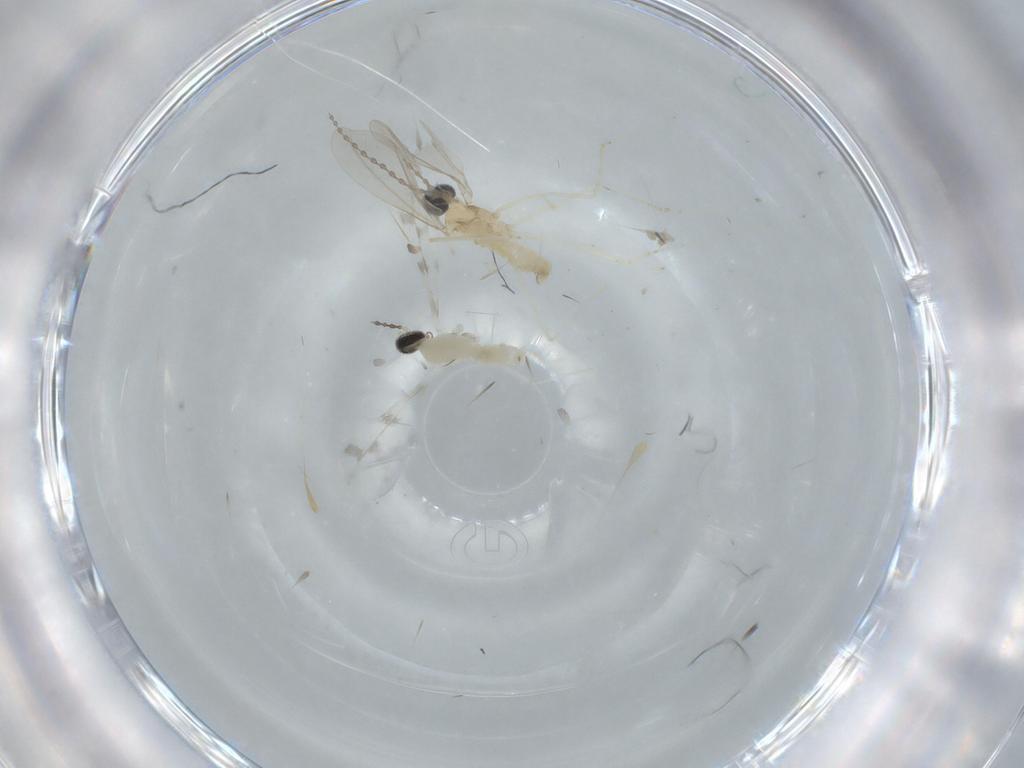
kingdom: Animalia
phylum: Arthropoda
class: Insecta
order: Diptera
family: Cecidomyiidae
